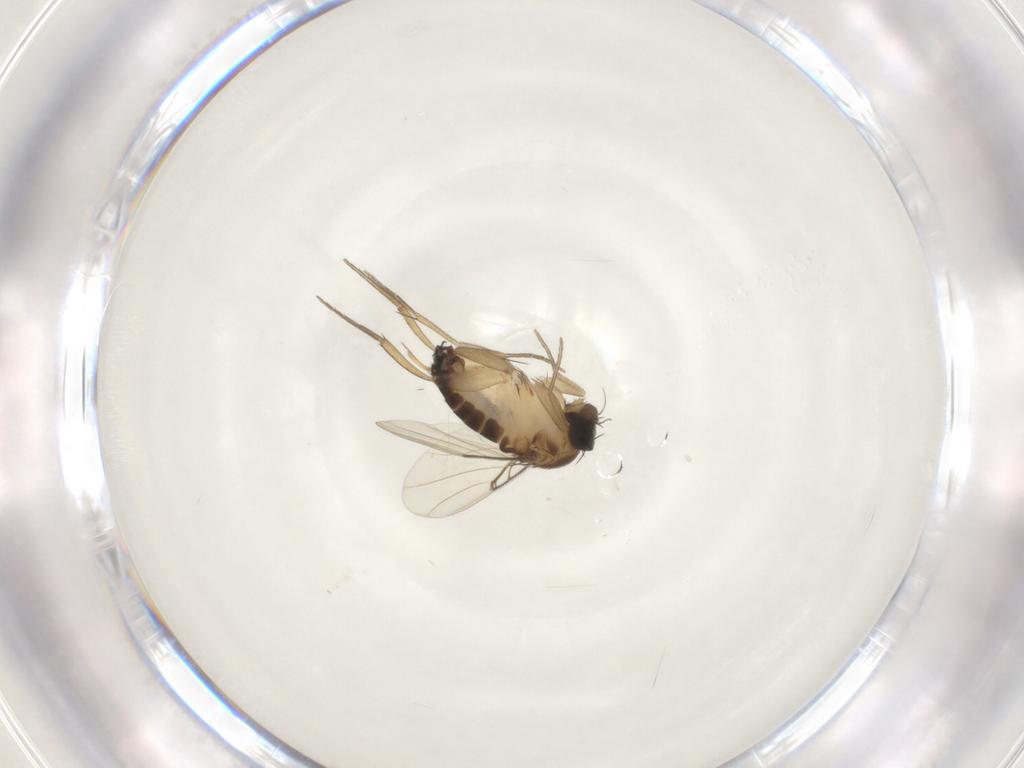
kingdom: Animalia
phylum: Arthropoda
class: Insecta
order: Diptera
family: Phoridae
